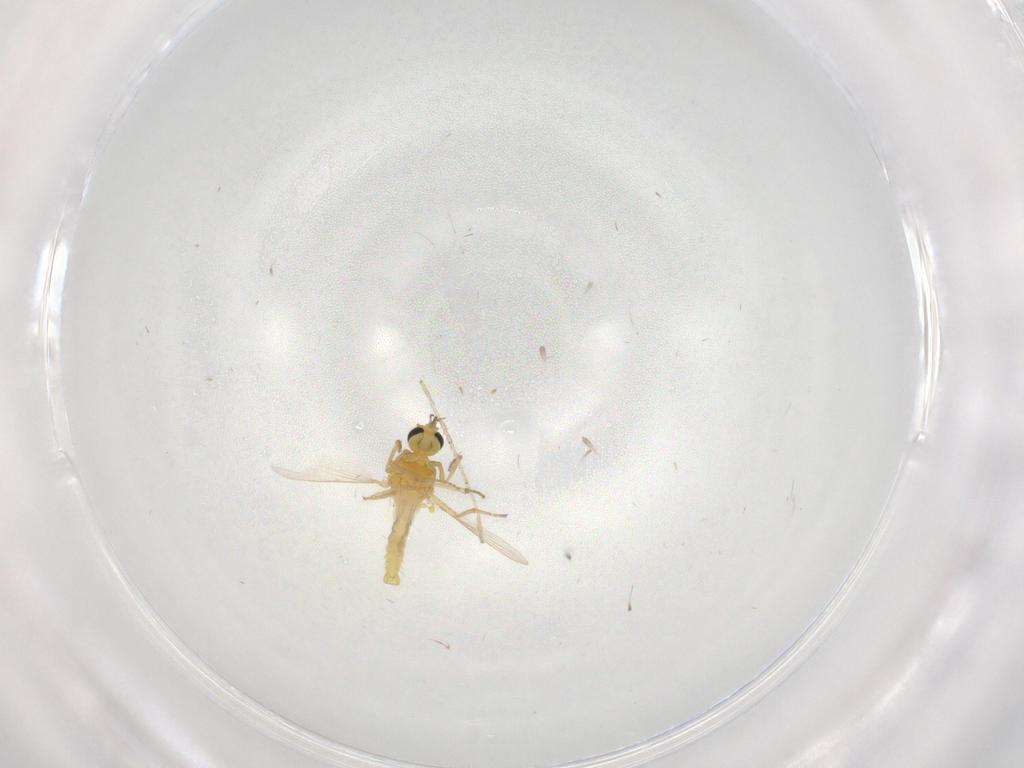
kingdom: Animalia
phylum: Arthropoda
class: Insecta
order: Diptera
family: Ceratopogonidae
